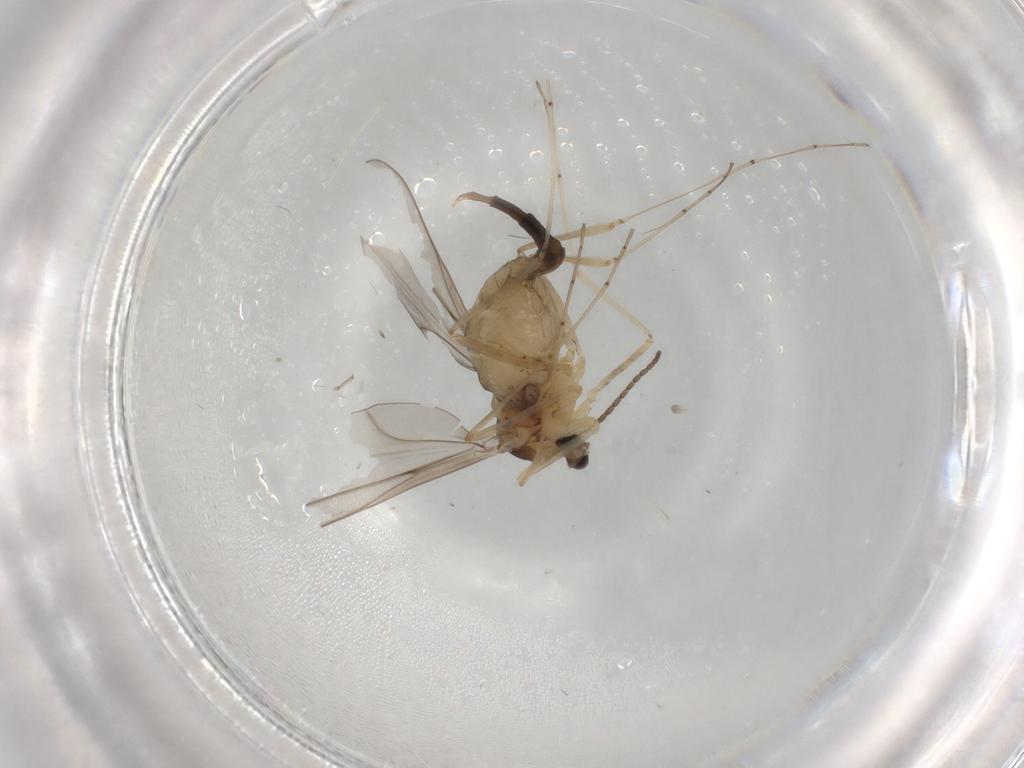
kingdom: Animalia
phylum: Arthropoda
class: Insecta
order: Diptera
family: Cecidomyiidae
